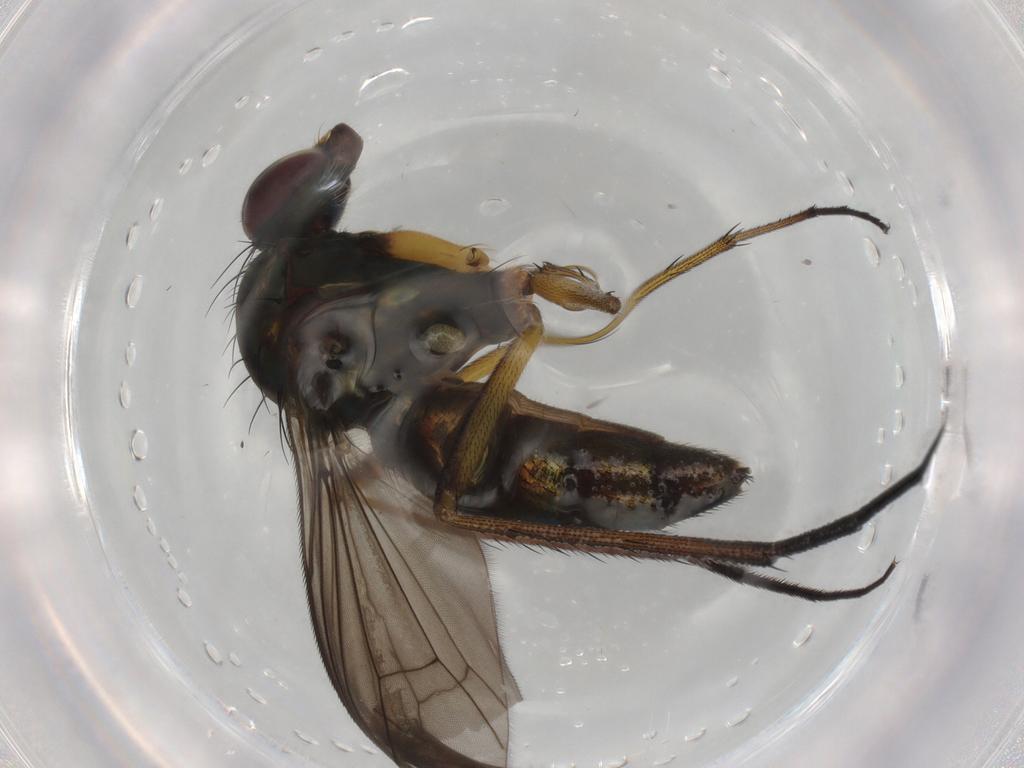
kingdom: Animalia
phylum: Arthropoda
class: Insecta
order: Diptera
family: Dolichopodidae
